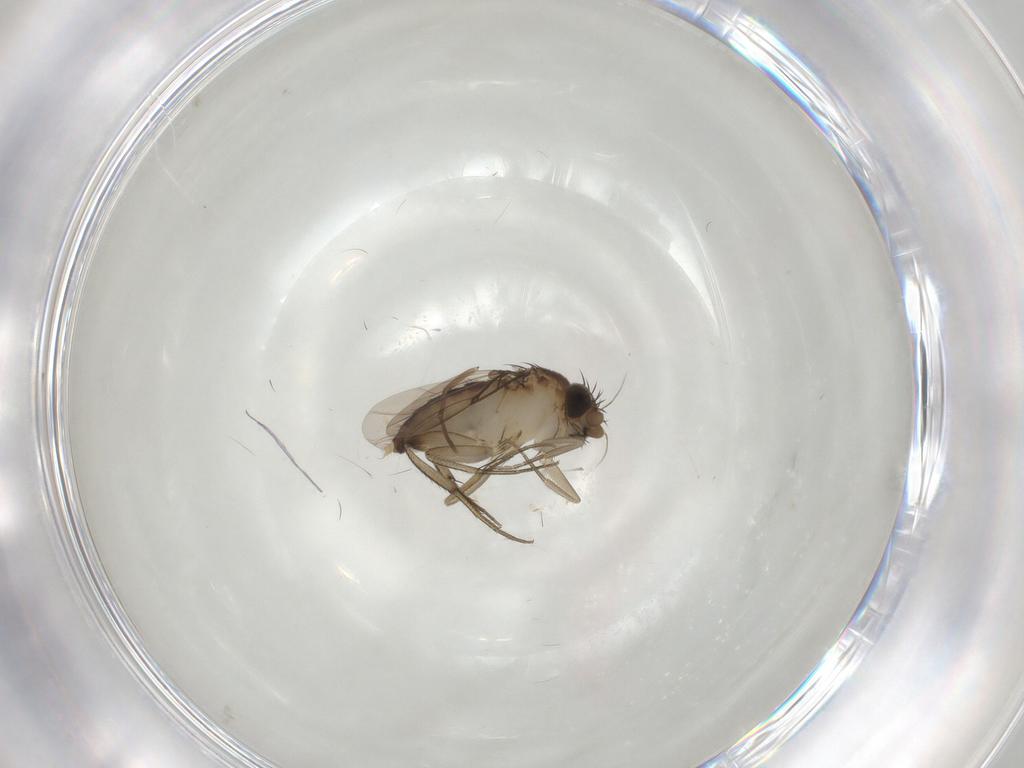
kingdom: Animalia
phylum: Arthropoda
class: Insecta
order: Diptera
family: Phoridae
